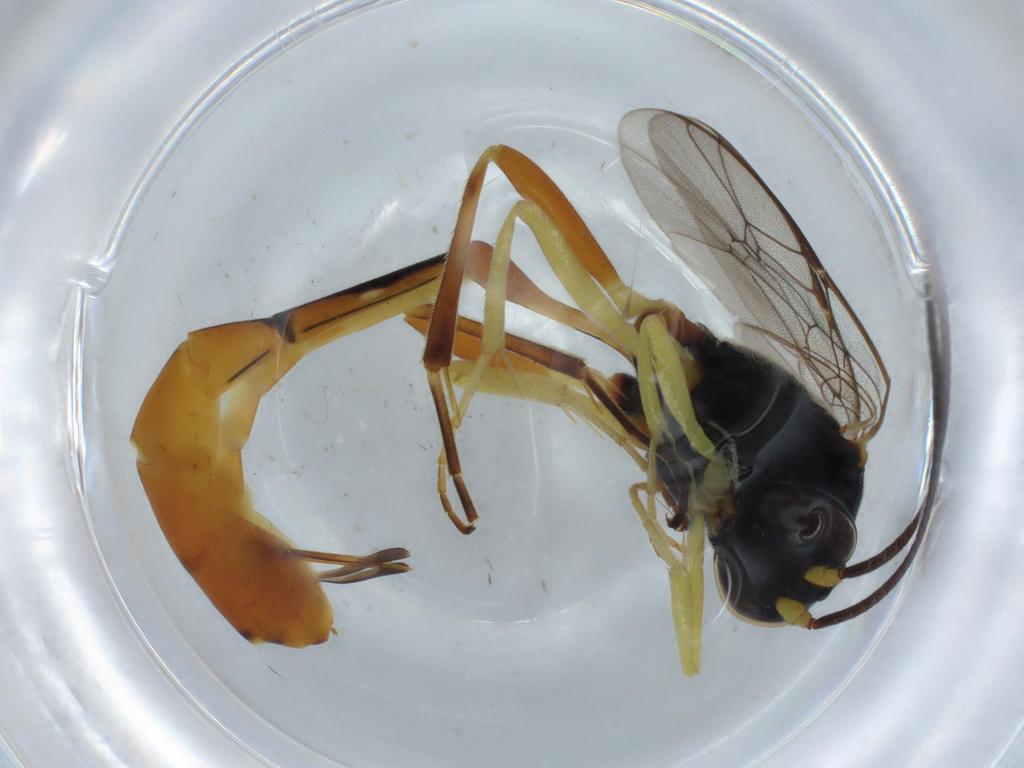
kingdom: Animalia
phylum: Arthropoda
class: Insecta
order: Hymenoptera
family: Ichneumonidae
